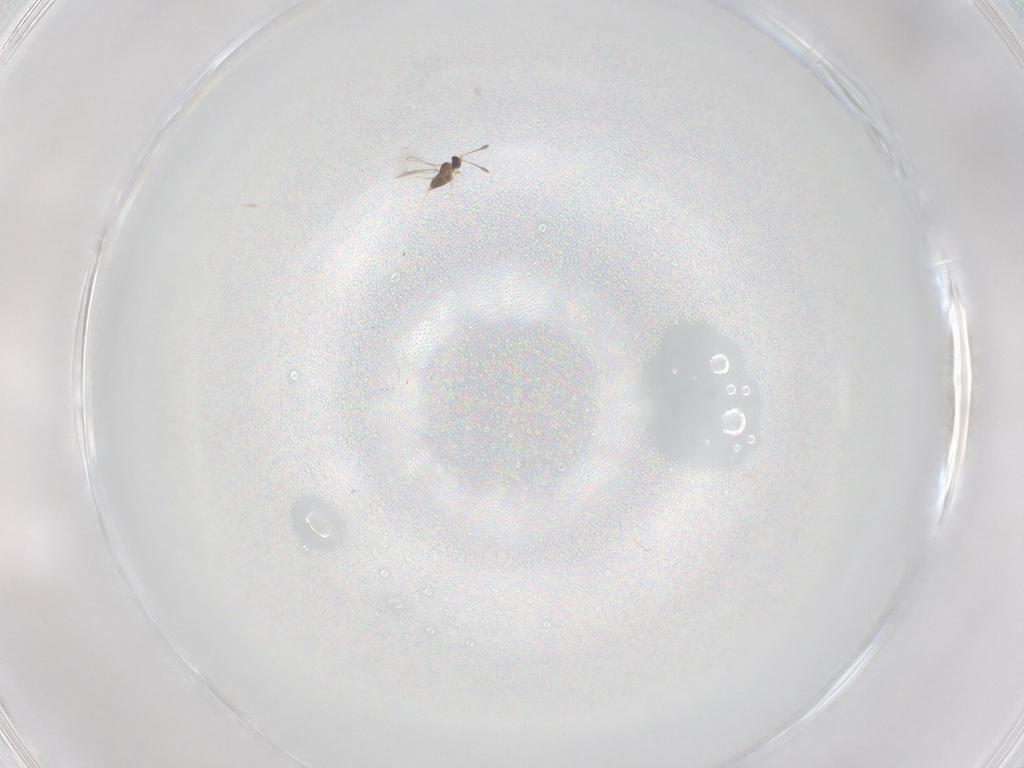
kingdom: Animalia
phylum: Arthropoda
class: Insecta
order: Hymenoptera
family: Mymaridae
